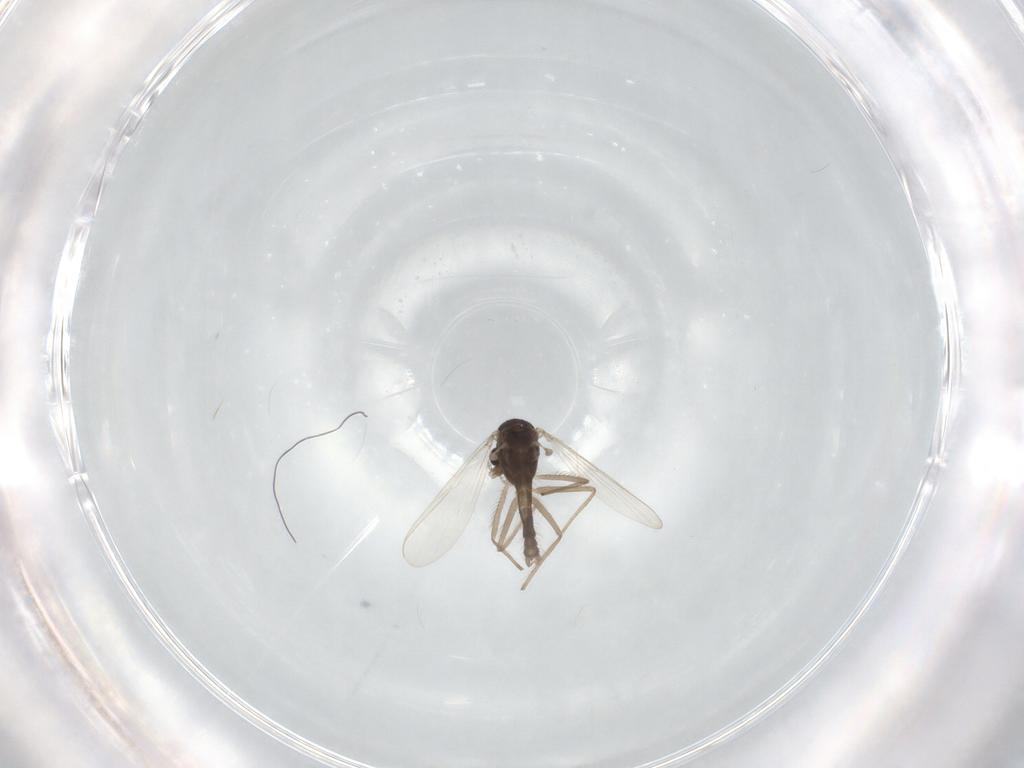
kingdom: Animalia
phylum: Arthropoda
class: Insecta
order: Diptera
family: Chironomidae
